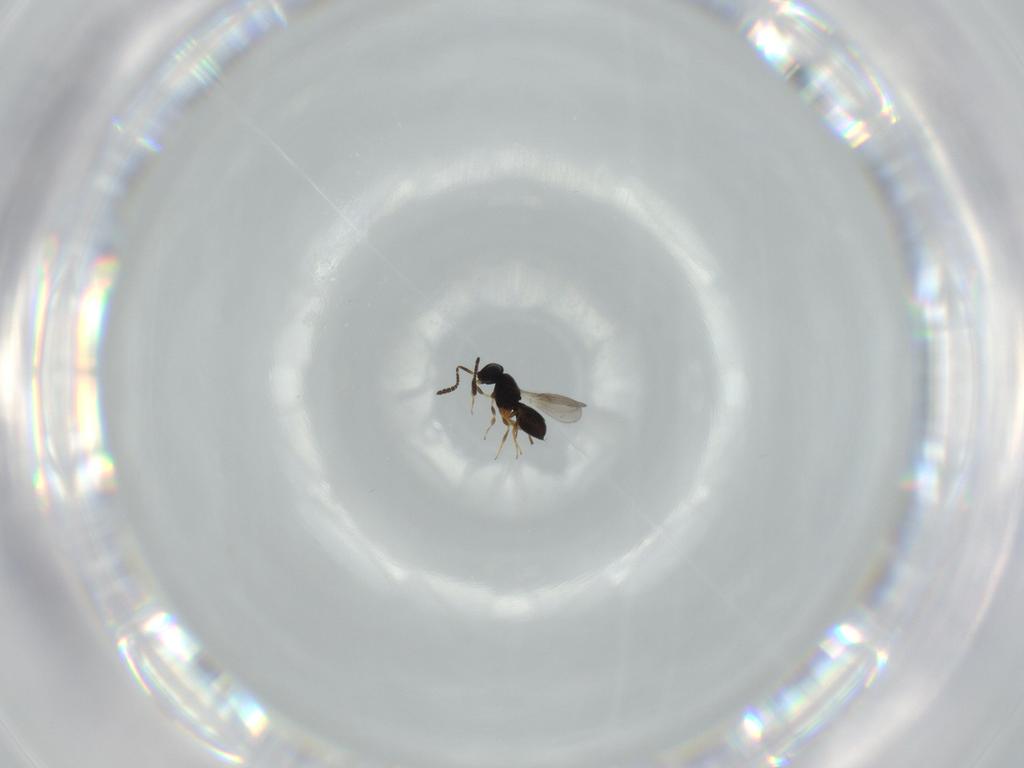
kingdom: Animalia
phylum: Arthropoda
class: Insecta
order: Hymenoptera
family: Scelionidae
